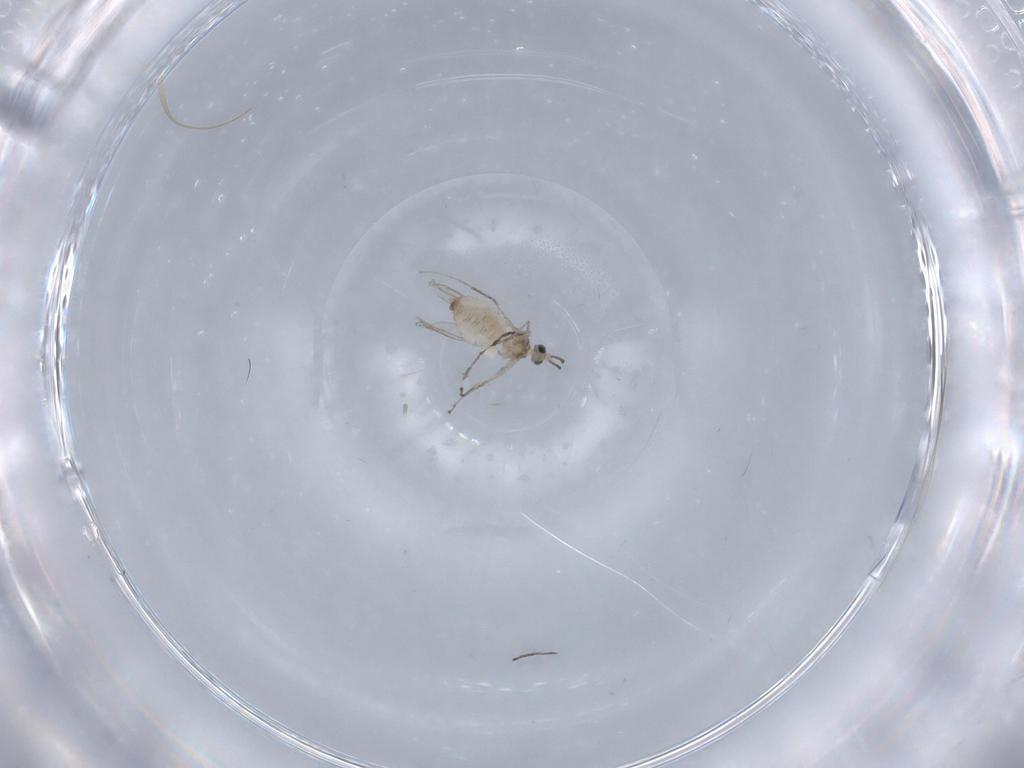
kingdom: Animalia
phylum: Arthropoda
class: Insecta
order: Diptera
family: Cecidomyiidae
